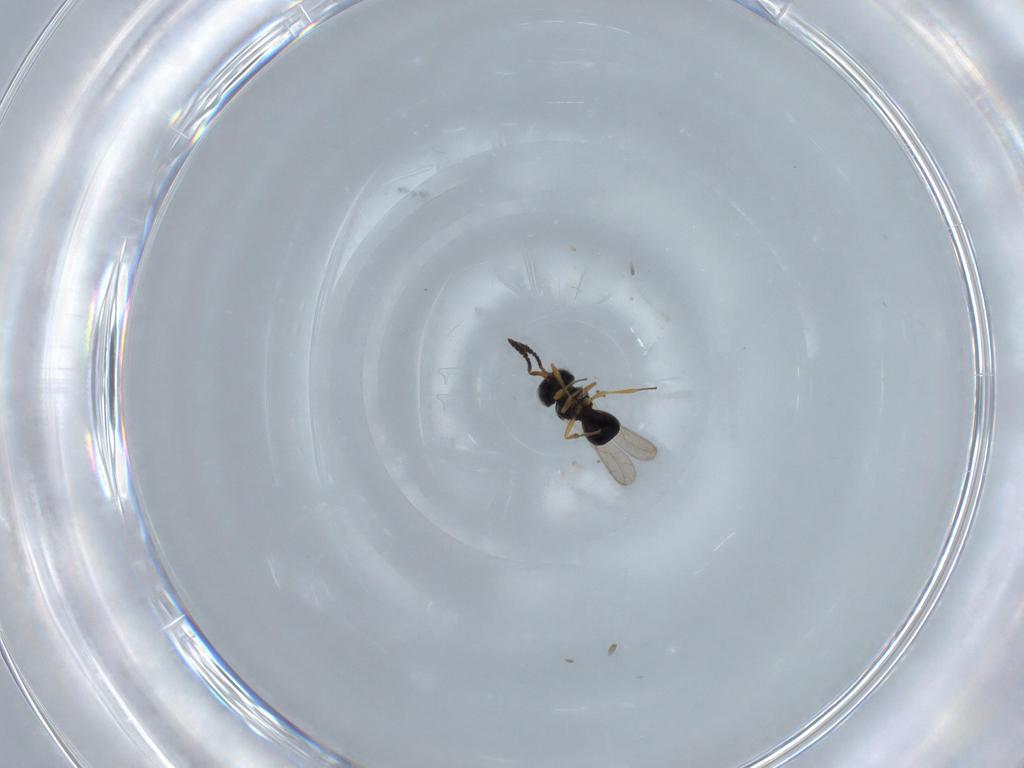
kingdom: Animalia
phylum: Arthropoda
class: Insecta
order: Hymenoptera
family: Scelionidae
